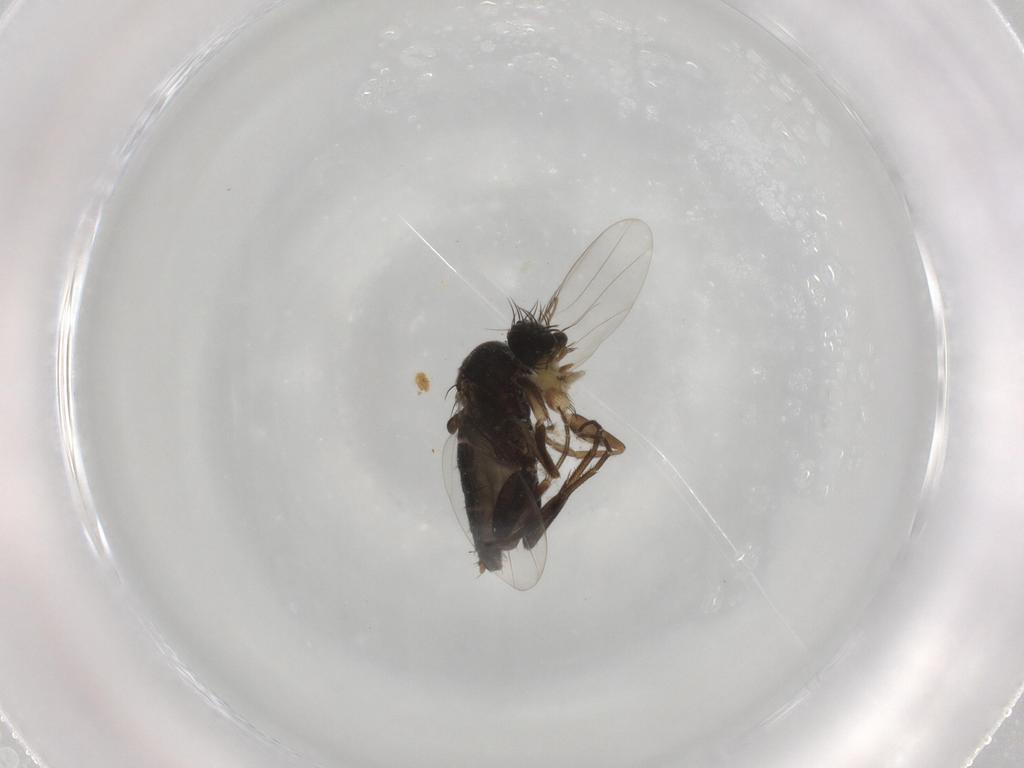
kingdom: Animalia
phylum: Arthropoda
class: Insecta
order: Diptera
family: Phoridae
